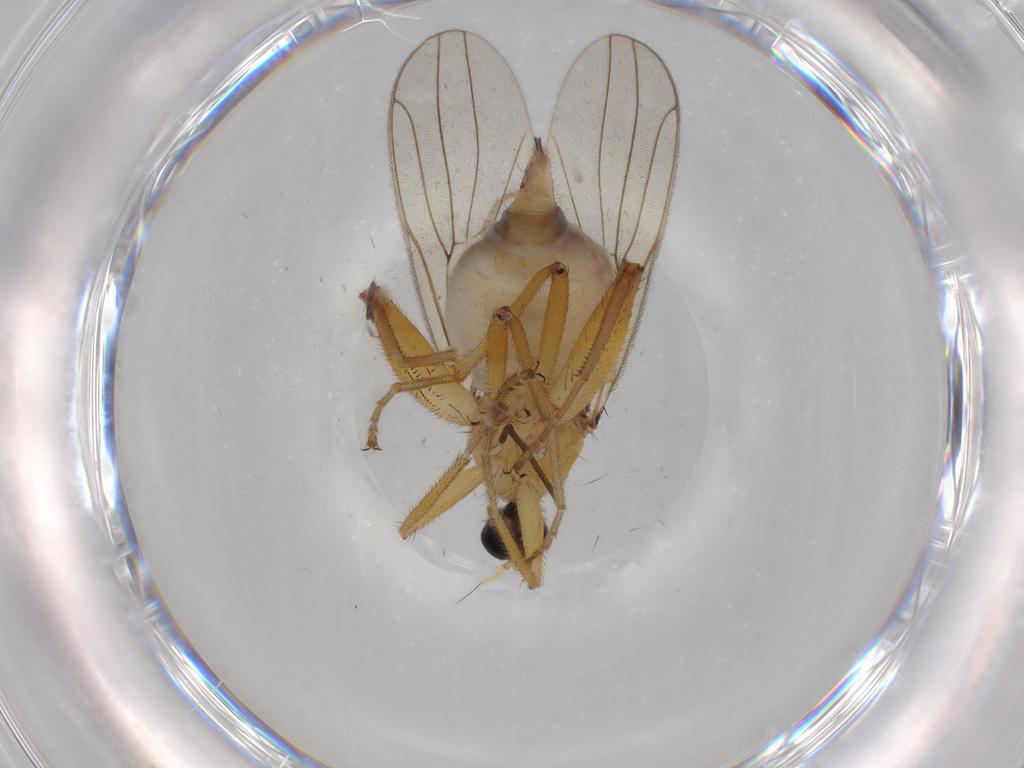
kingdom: Animalia
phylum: Arthropoda
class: Insecta
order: Diptera
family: Hybotidae
